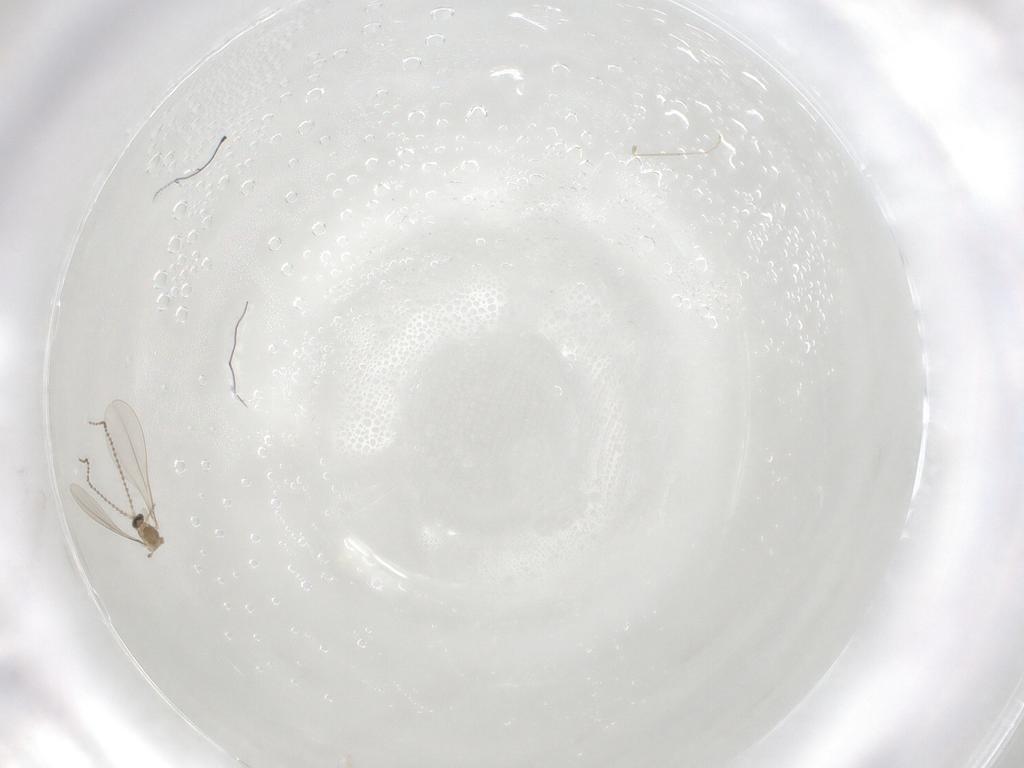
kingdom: Animalia
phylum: Arthropoda
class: Insecta
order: Diptera
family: Cecidomyiidae
